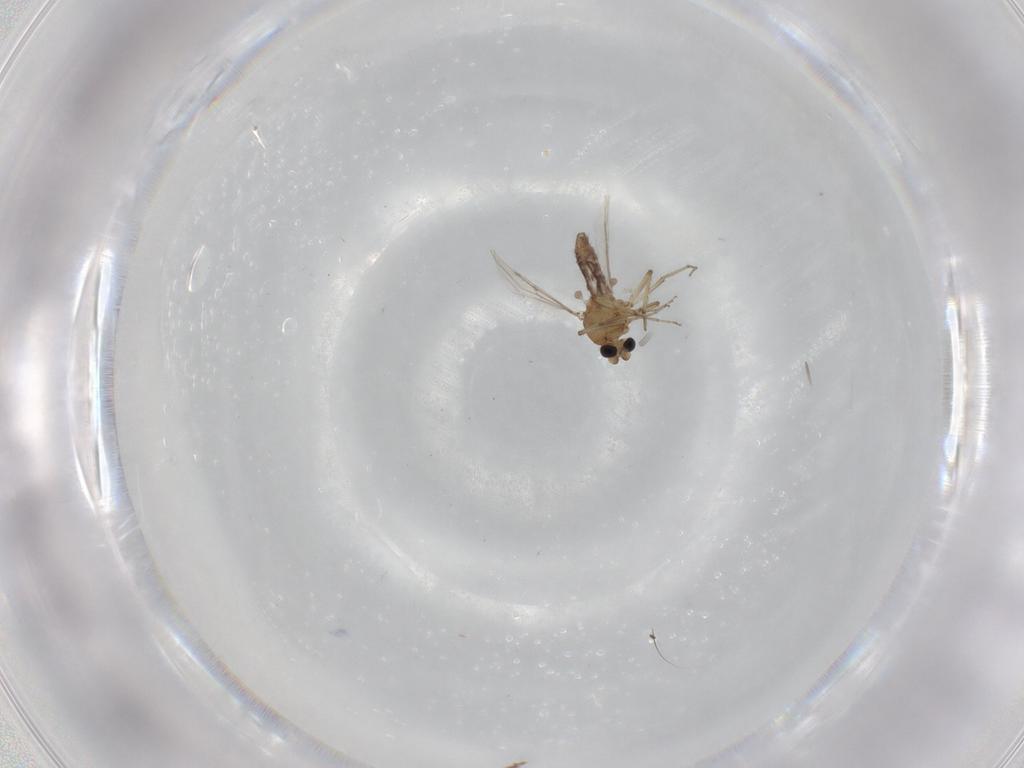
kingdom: Animalia
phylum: Arthropoda
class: Insecta
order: Diptera
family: Ceratopogonidae
